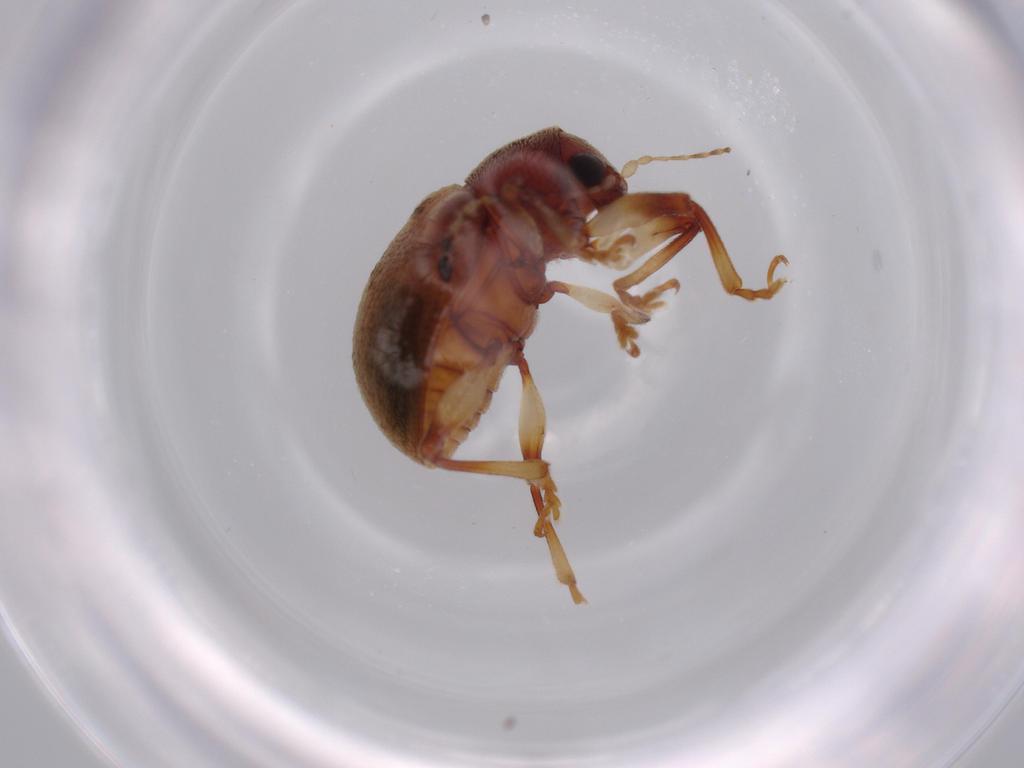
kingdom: Animalia
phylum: Arthropoda
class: Insecta
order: Coleoptera
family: Chrysomelidae
